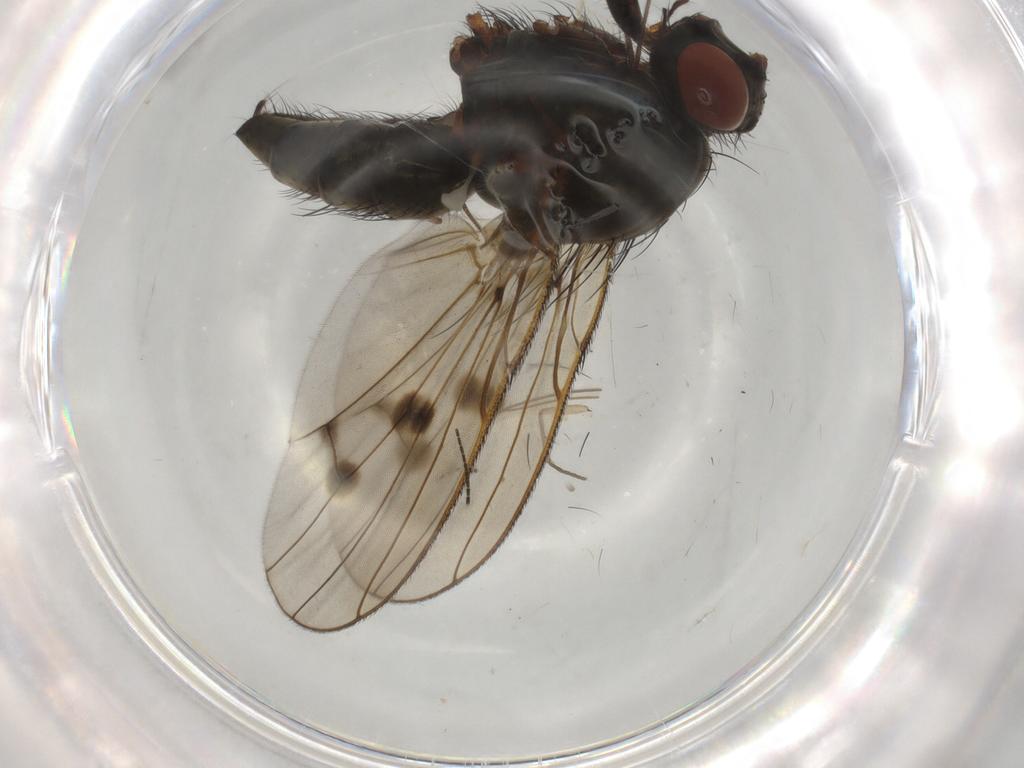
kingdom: Animalia
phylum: Arthropoda
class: Insecta
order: Diptera
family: Anthomyiidae
